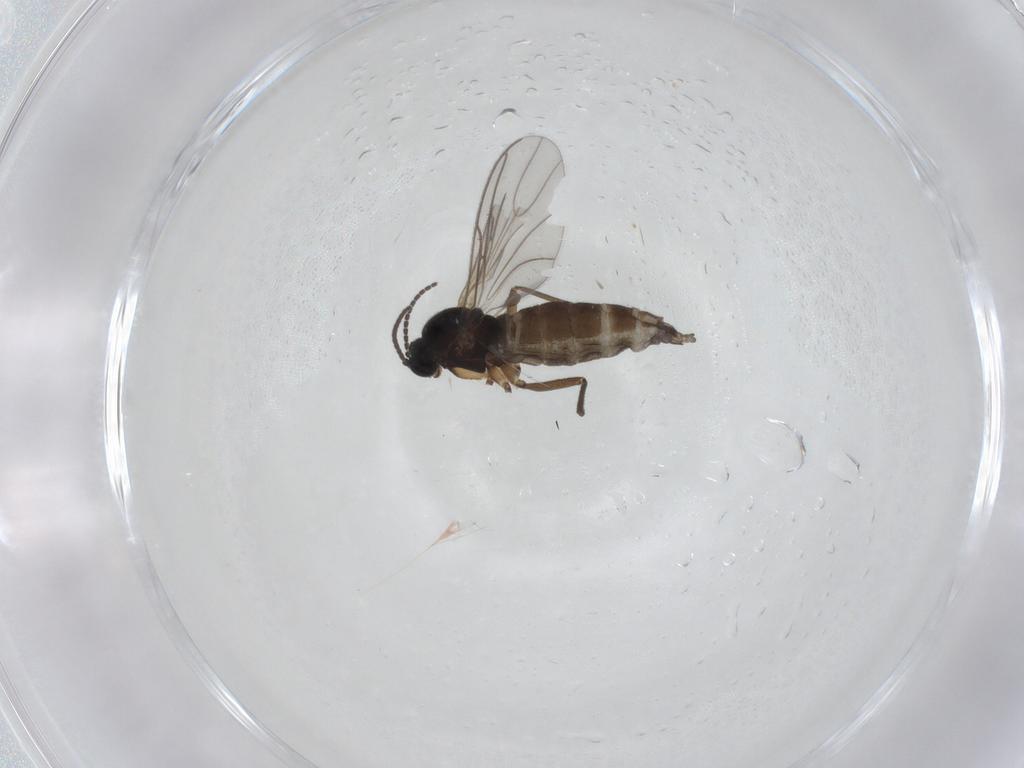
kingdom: Animalia
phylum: Arthropoda
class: Insecta
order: Diptera
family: Sciaridae
